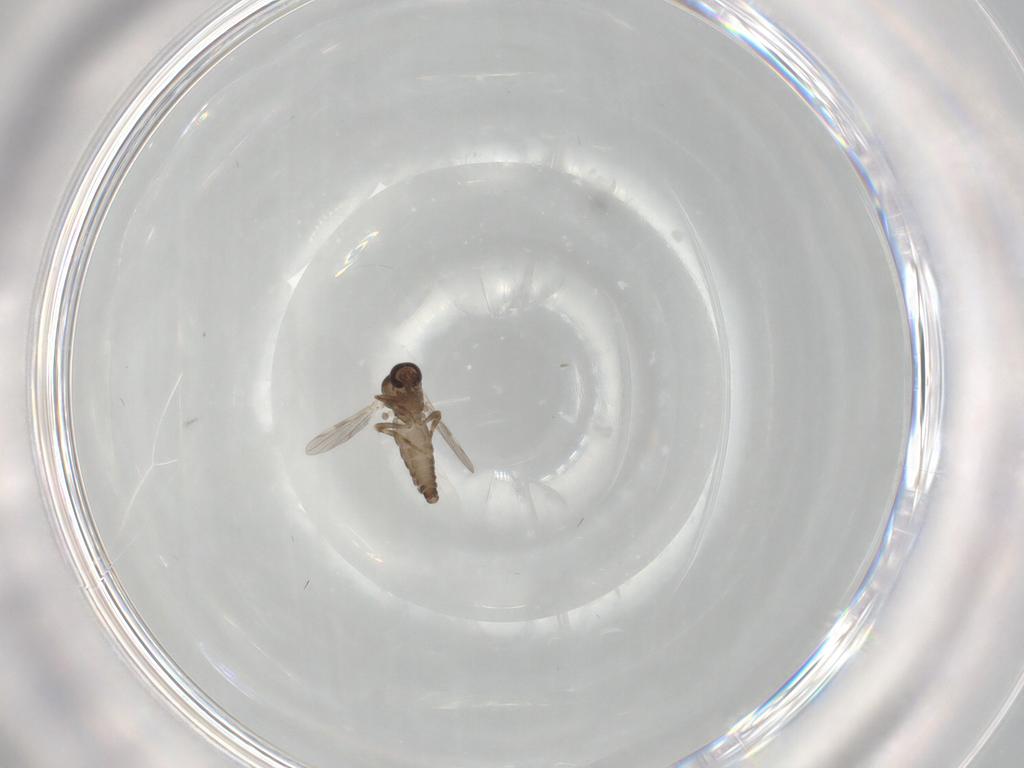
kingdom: Animalia
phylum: Arthropoda
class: Insecta
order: Diptera
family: Ceratopogonidae
